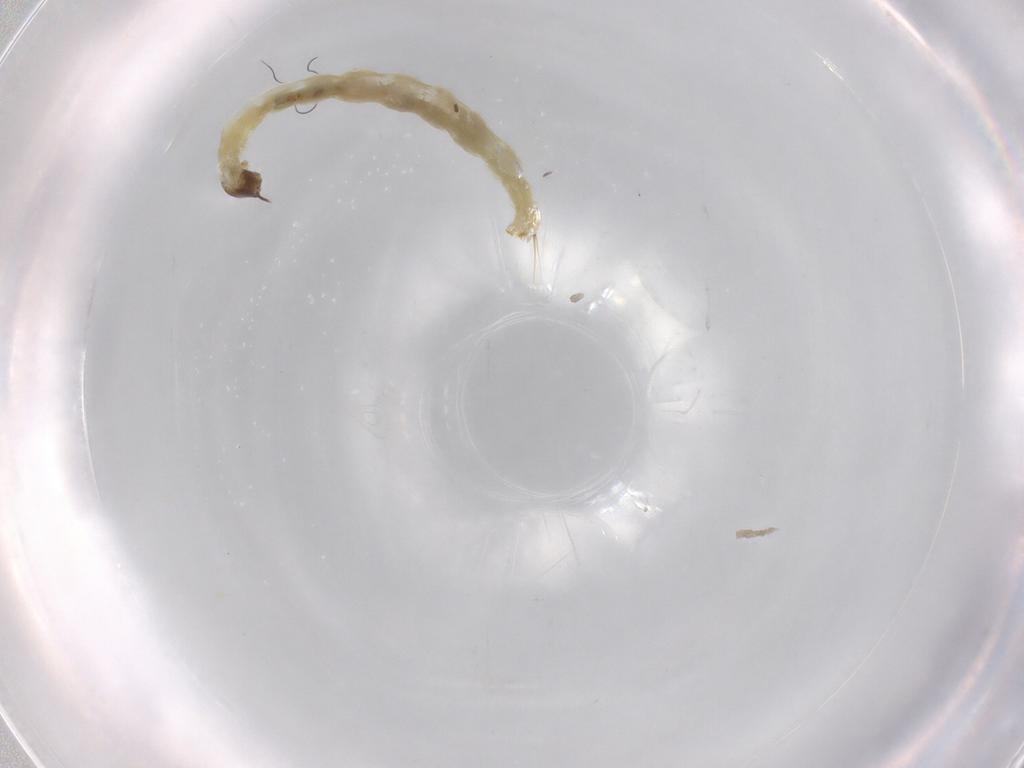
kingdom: Animalia
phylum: Arthropoda
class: Insecta
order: Diptera
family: Chironomidae
